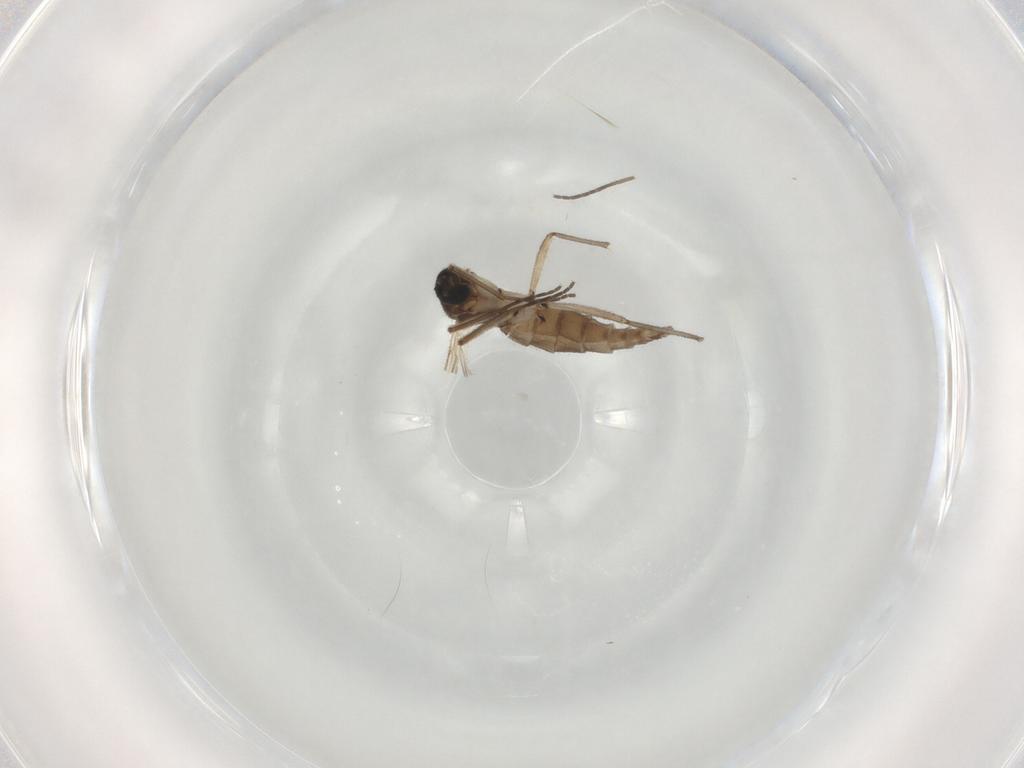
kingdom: Animalia
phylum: Arthropoda
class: Insecta
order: Diptera
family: Sciaridae
